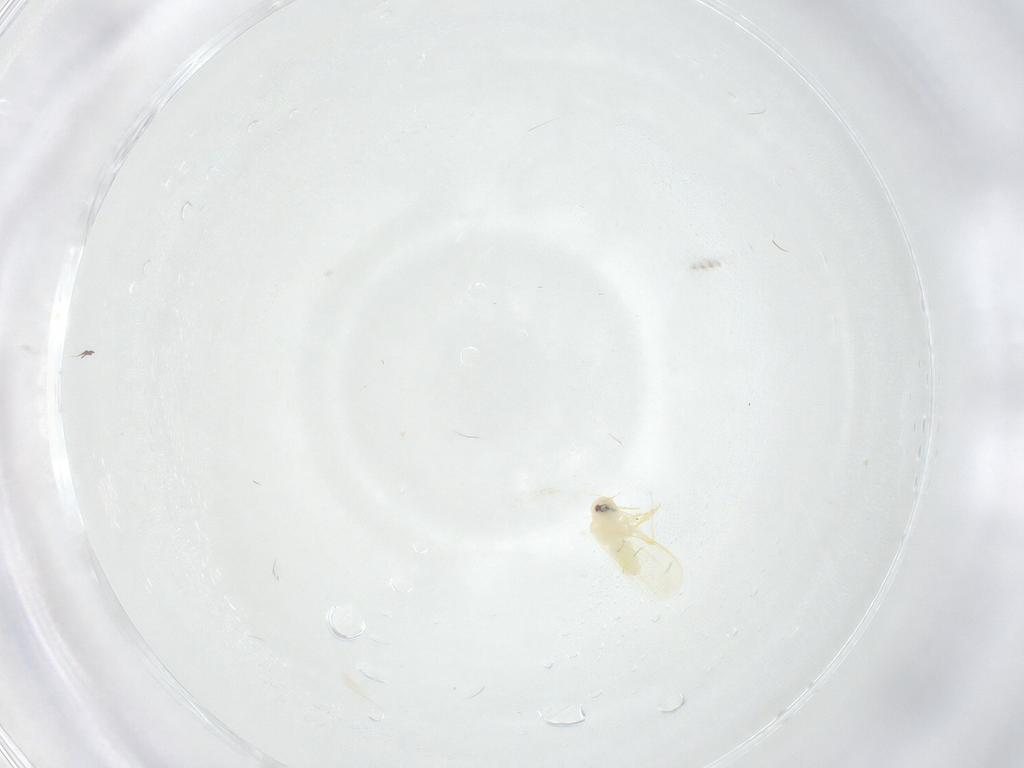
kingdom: Animalia
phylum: Arthropoda
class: Insecta
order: Hemiptera
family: Aleyrodidae
